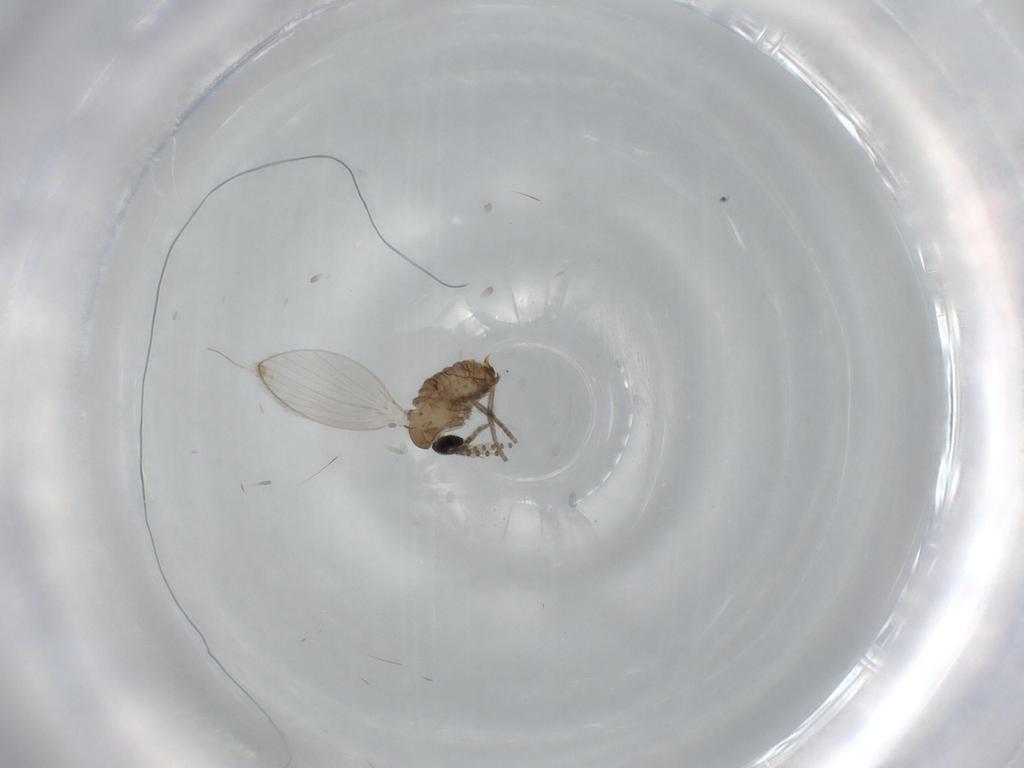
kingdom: Animalia
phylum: Arthropoda
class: Insecta
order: Diptera
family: Psychodidae
